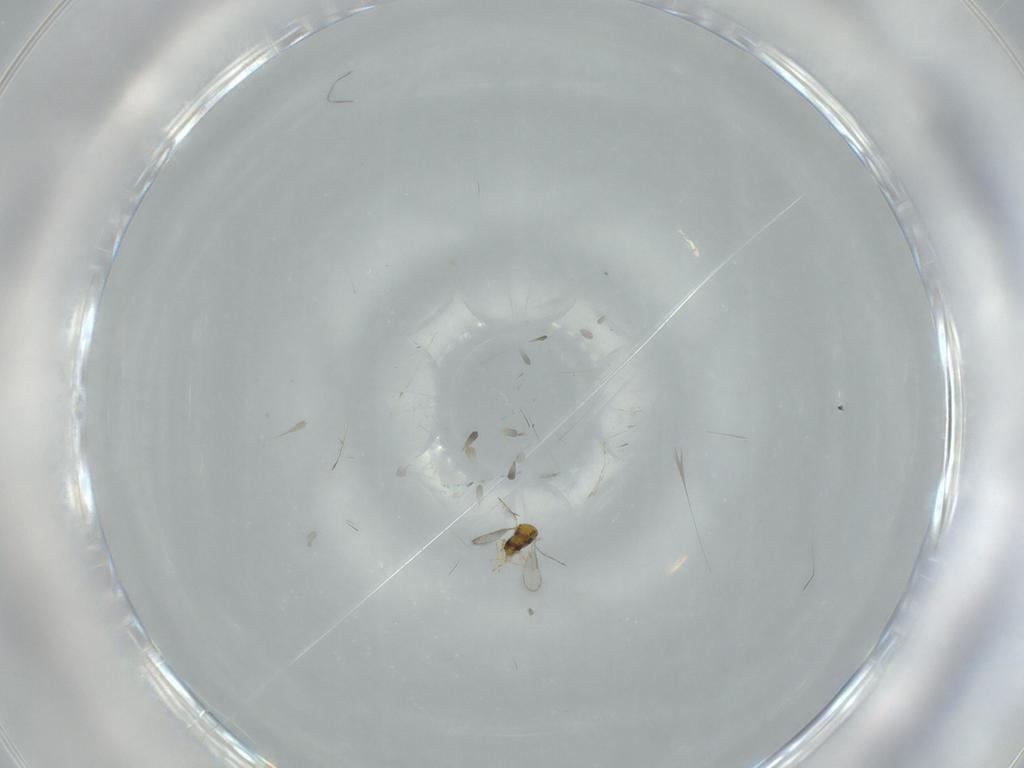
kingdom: Animalia
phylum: Arthropoda
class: Insecta
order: Hymenoptera
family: Aphelinidae
